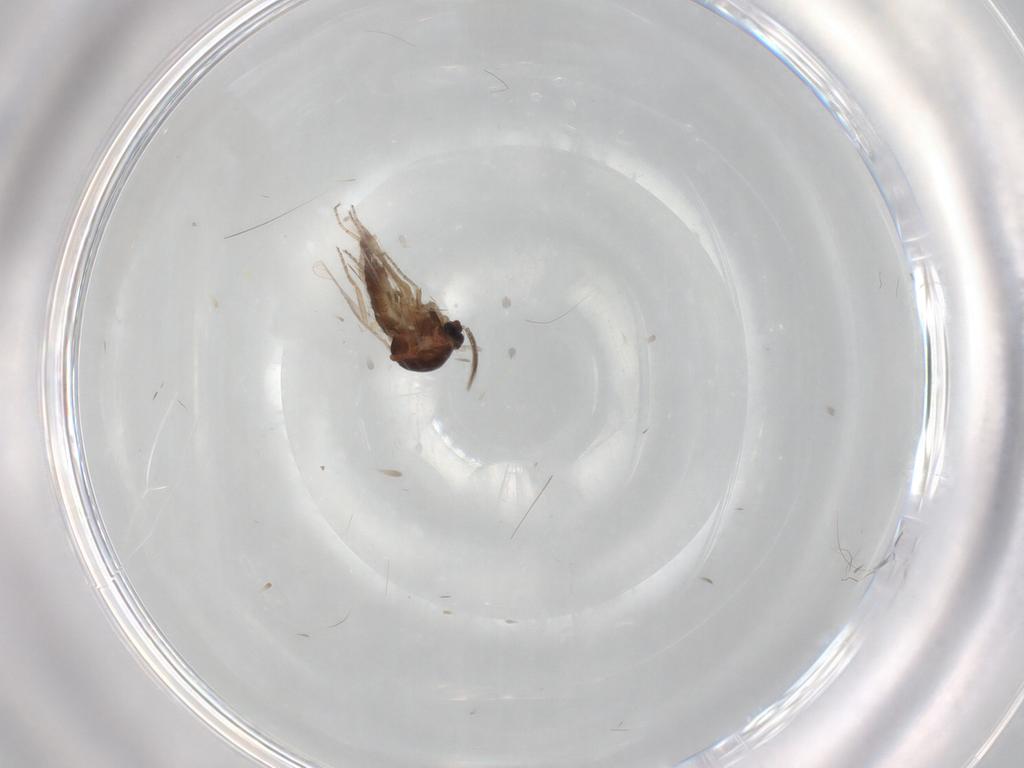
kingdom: Animalia
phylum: Arthropoda
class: Insecta
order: Diptera
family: Ceratopogonidae
